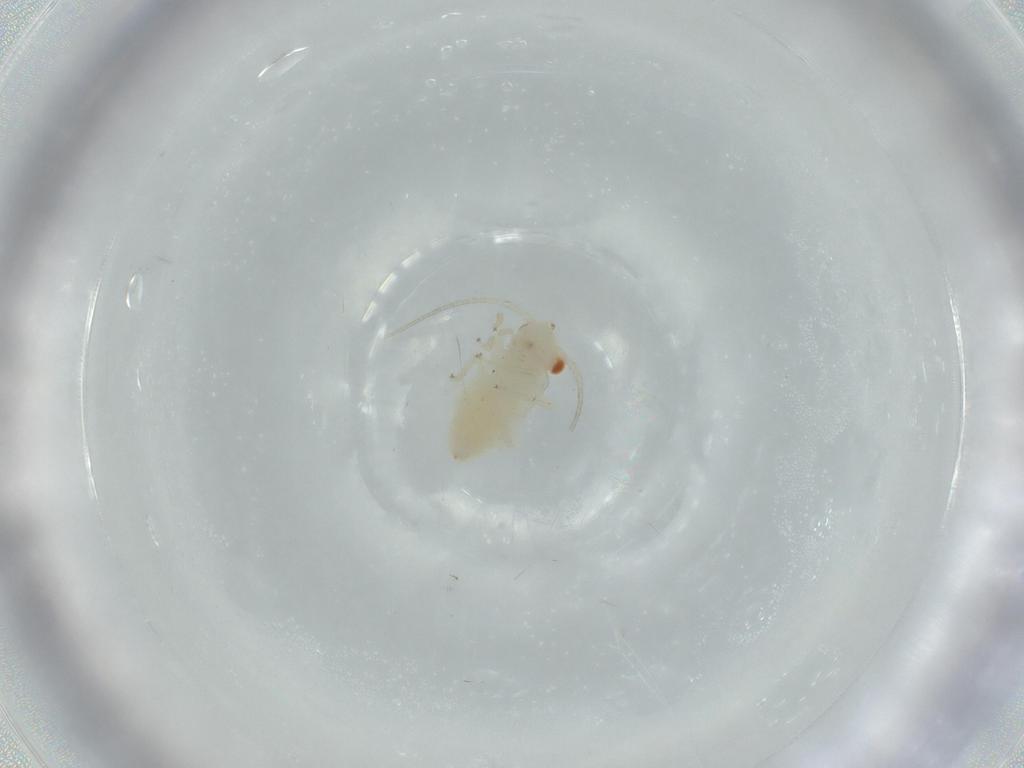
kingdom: Animalia
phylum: Arthropoda
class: Insecta
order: Psocodea
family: Caeciliusidae
